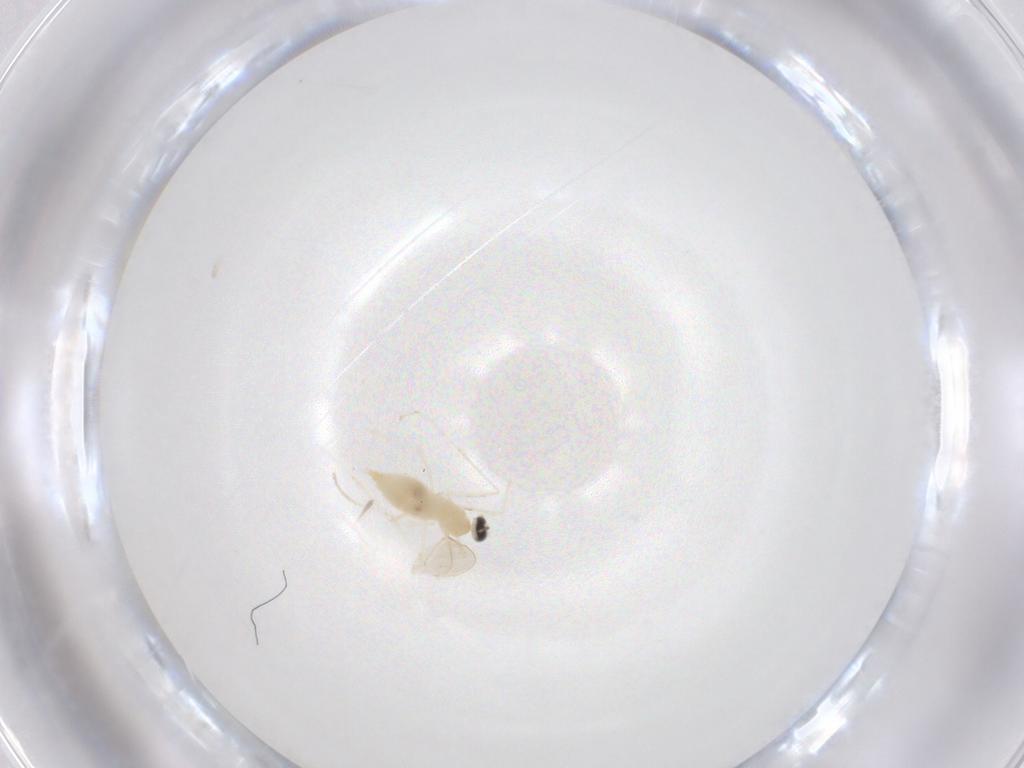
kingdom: Animalia
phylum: Arthropoda
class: Insecta
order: Diptera
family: Cecidomyiidae
